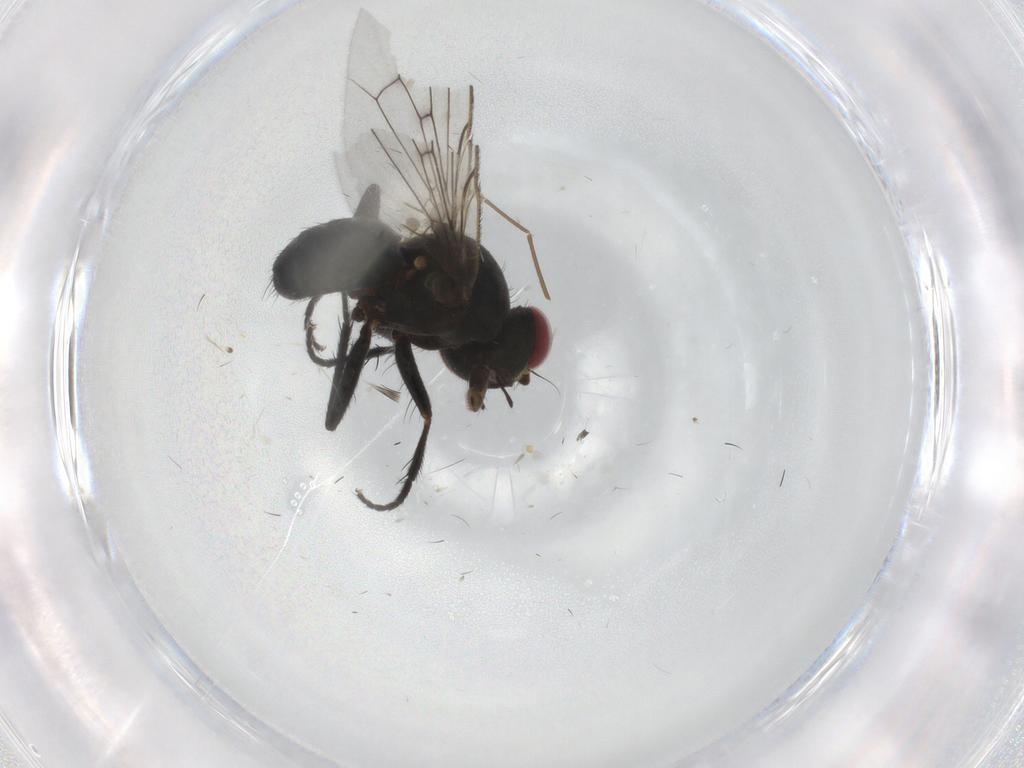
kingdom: Animalia
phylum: Arthropoda
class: Insecta
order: Diptera
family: Muscidae
